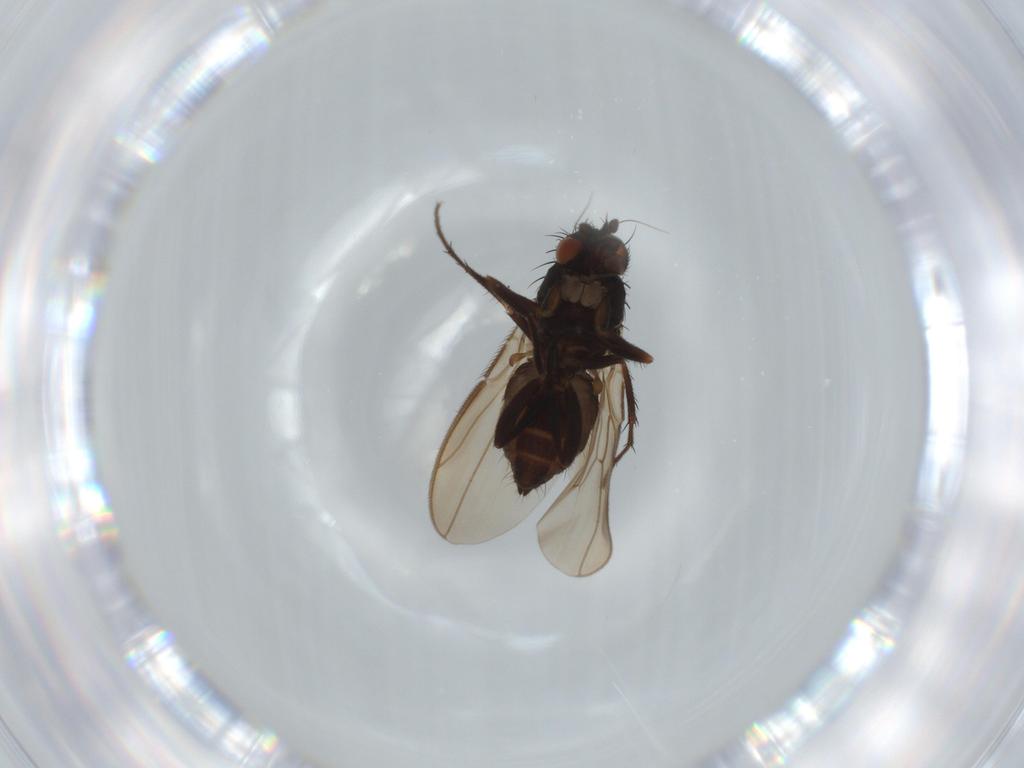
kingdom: Animalia
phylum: Arthropoda
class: Insecta
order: Diptera
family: Sphaeroceridae
